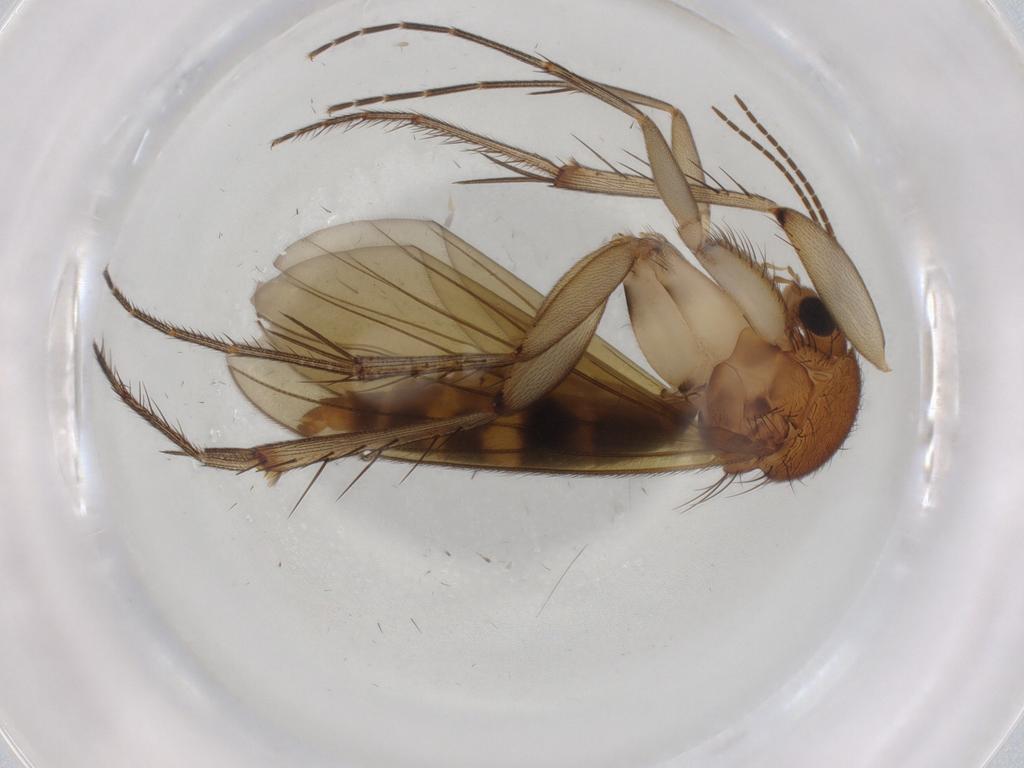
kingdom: Animalia
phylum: Arthropoda
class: Insecta
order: Diptera
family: Mycetophilidae
